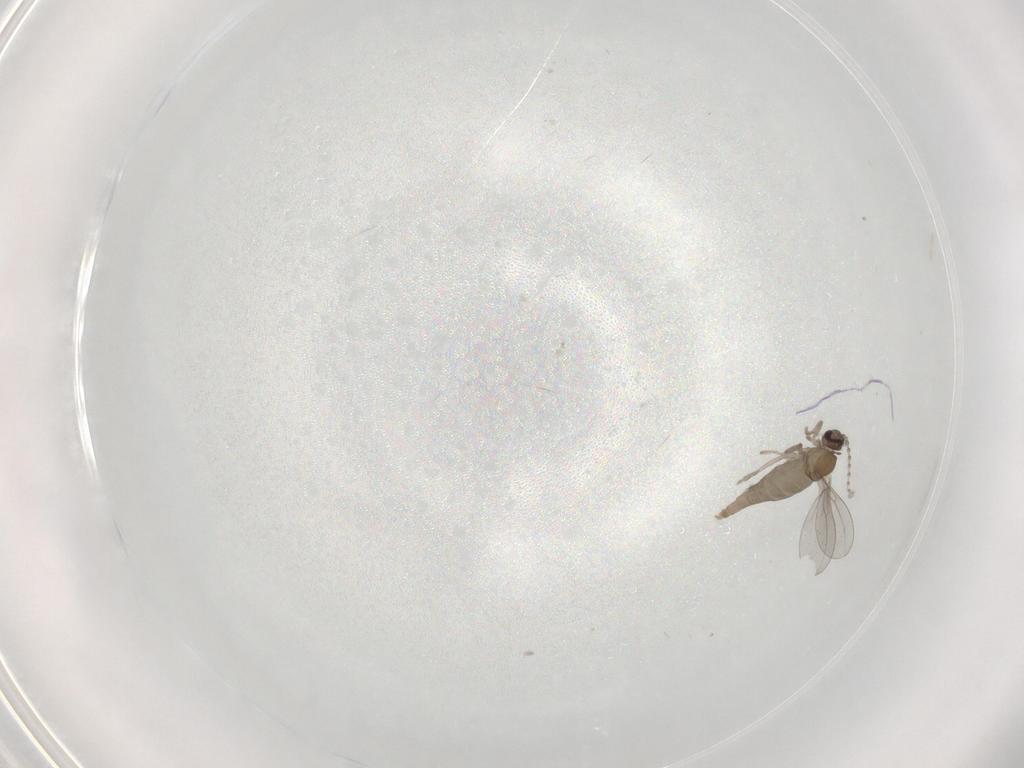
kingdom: Animalia
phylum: Arthropoda
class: Insecta
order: Diptera
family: Cecidomyiidae
